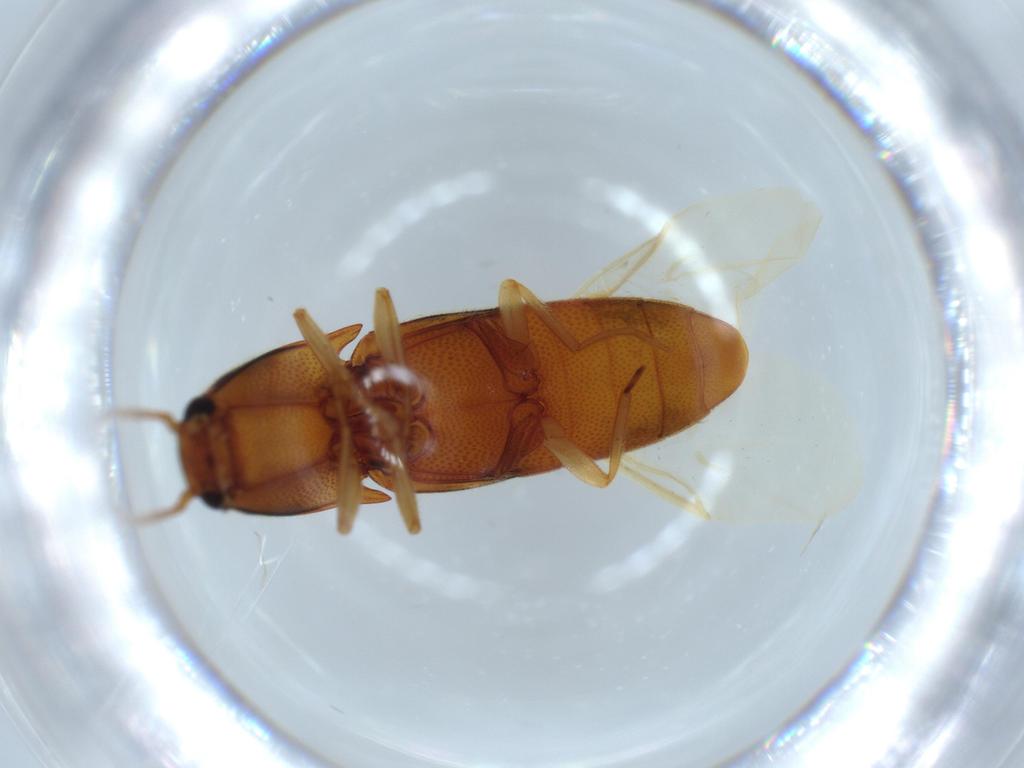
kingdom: Animalia
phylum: Arthropoda
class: Insecta
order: Coleoptera
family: Elateridae
